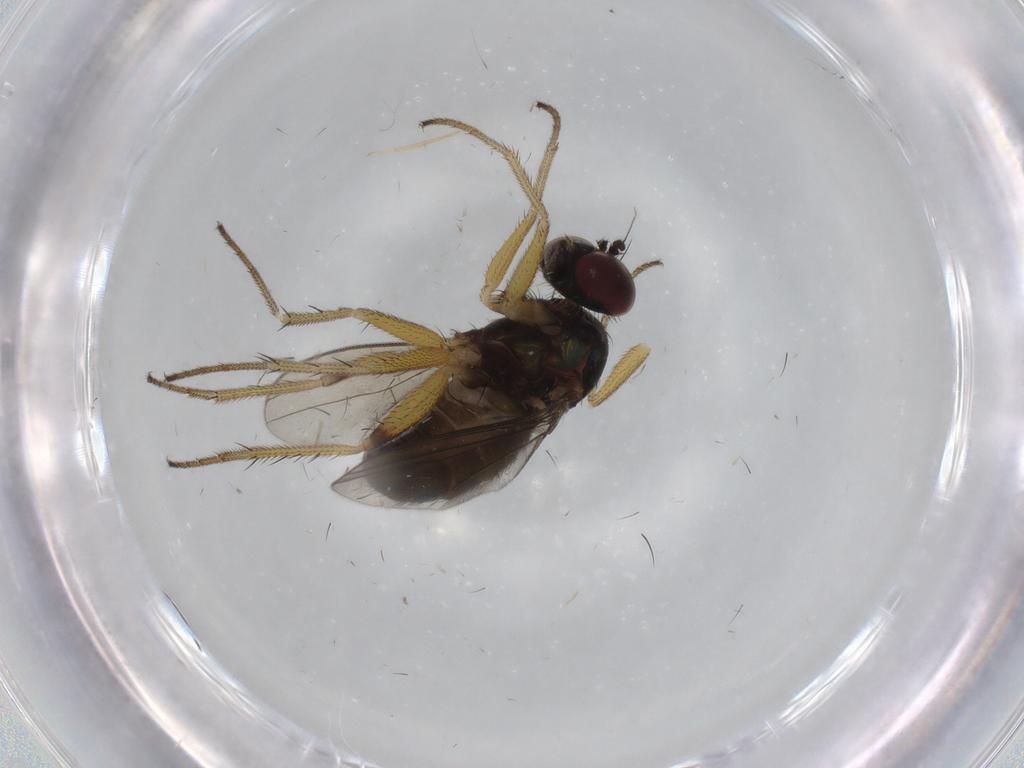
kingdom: Animalia
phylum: Arthropoda
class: Insecta
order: Diptera
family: Dolichopodidae
